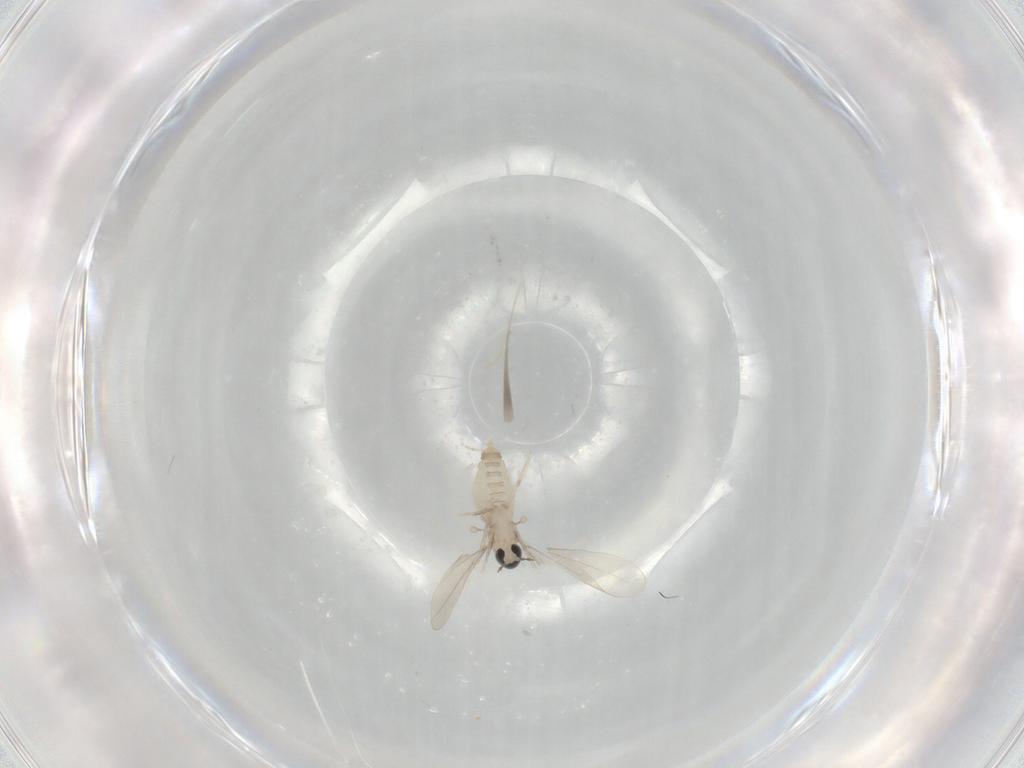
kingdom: Animalia
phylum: Arthropoda
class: Insecta
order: Diptera
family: Cecidomyiidae
